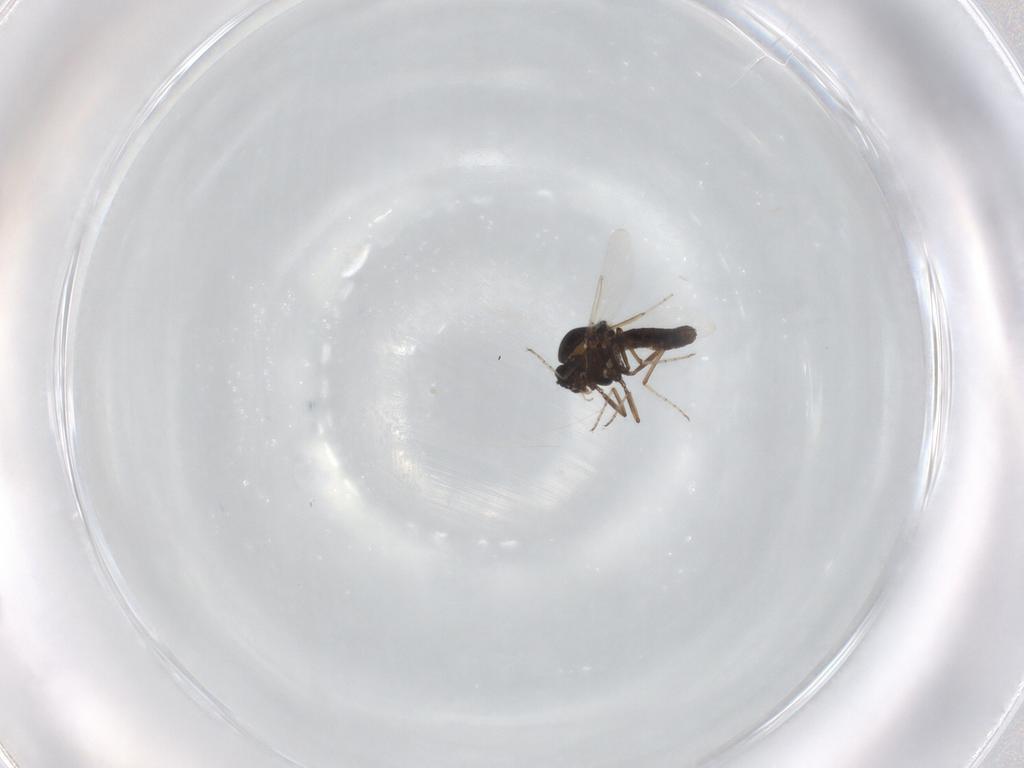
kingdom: Animalia
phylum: Arthropoda
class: Insecta
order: Diptera
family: Ceratopogonidae
